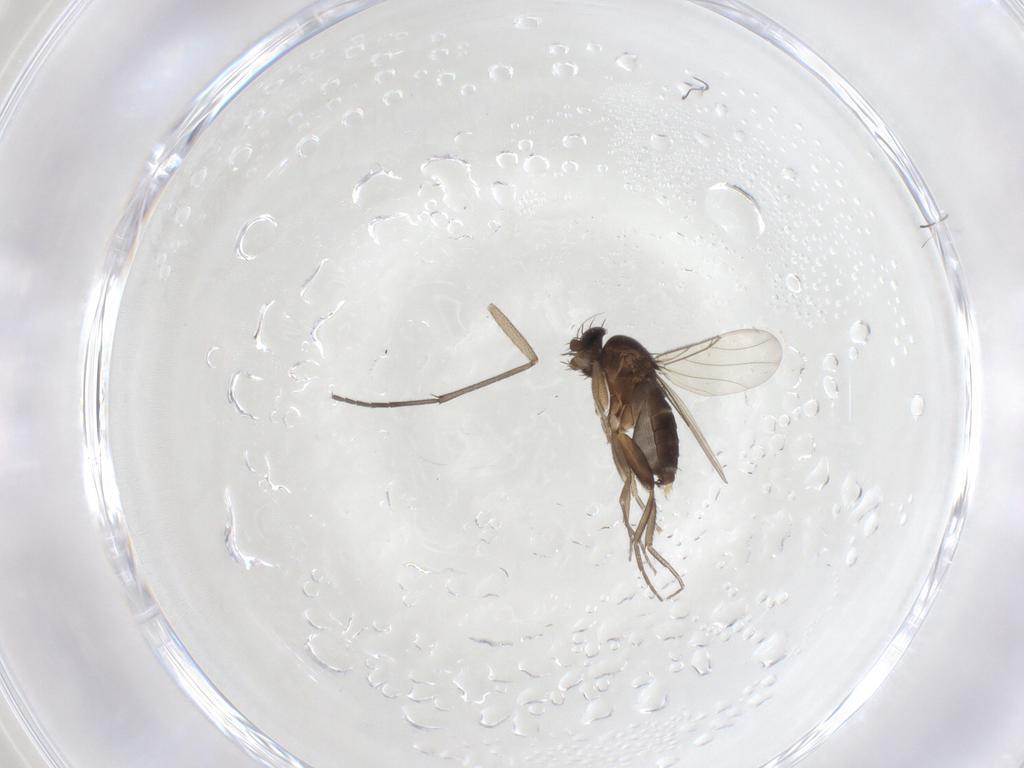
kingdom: Animalia
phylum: Arthropoda
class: Insecta
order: Diptera
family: Phoridae
